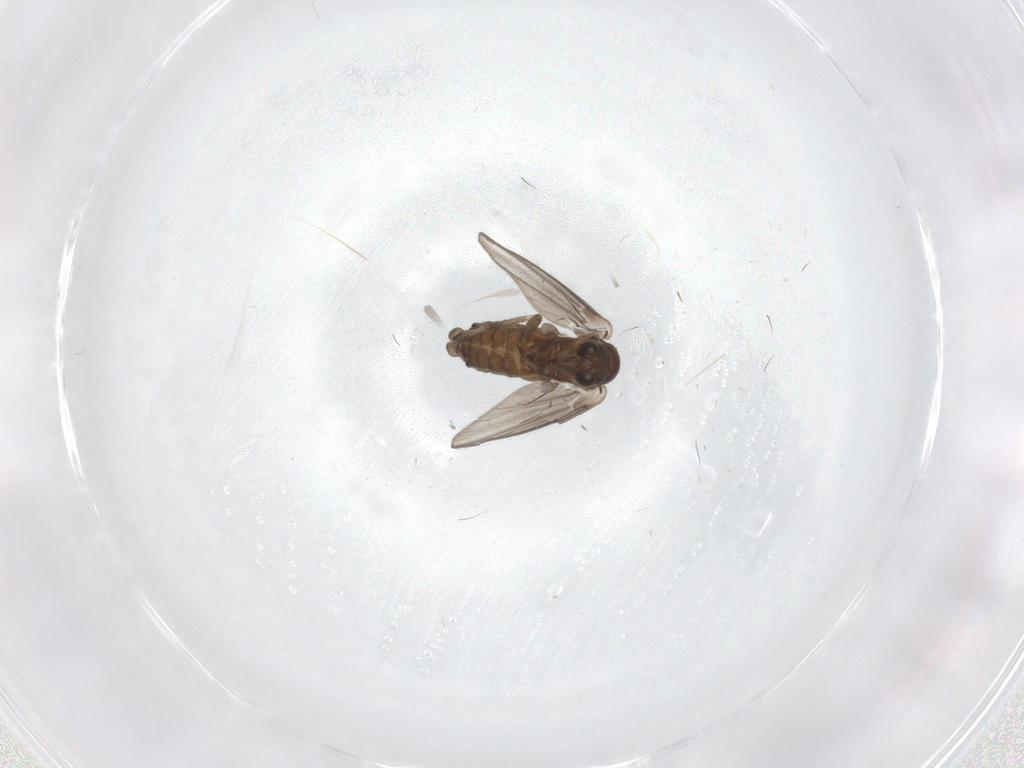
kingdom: Animalia
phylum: Arthropoda
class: Insecta
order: Diptera
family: Psychodidae
